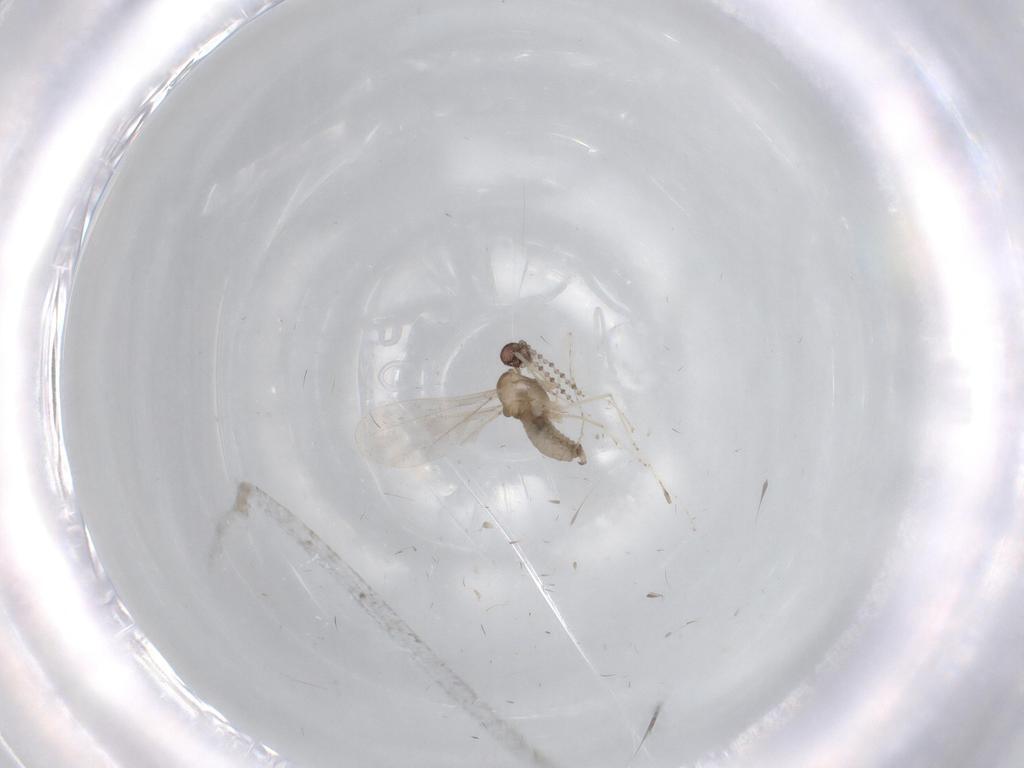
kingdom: Animalia
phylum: Arthropoda
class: Insecta
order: Diptera
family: Cecidomyiidae
